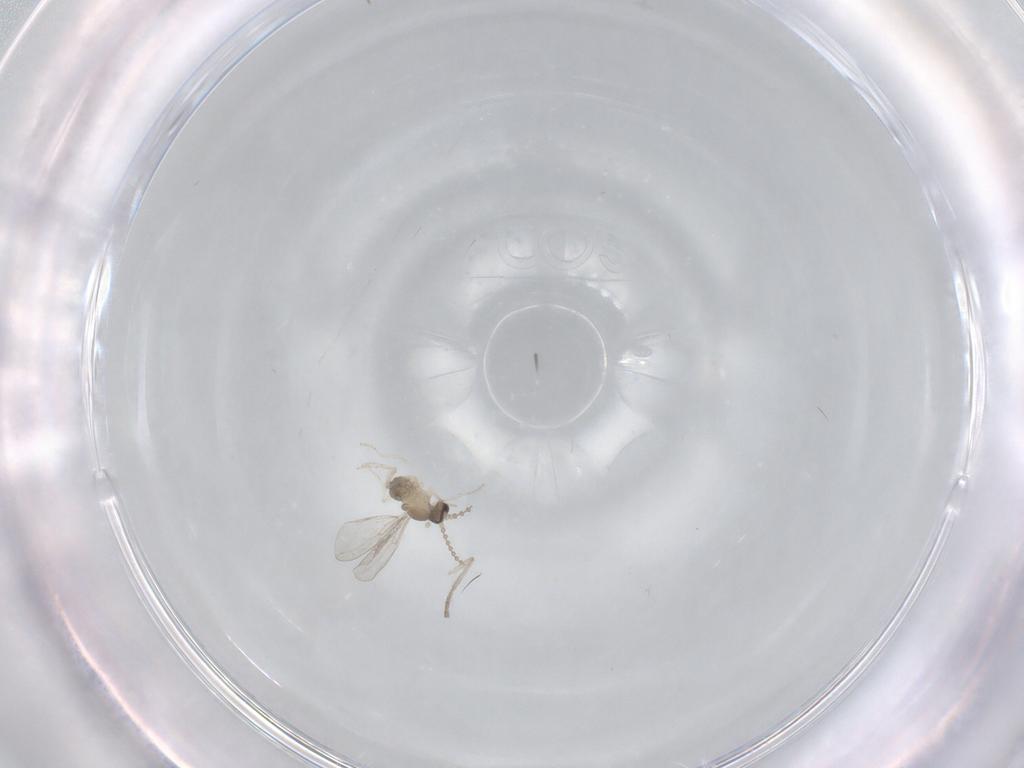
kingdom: Animalia
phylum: Arthropoda
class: Insecta
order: Diptera
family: Cecidomyiidae
